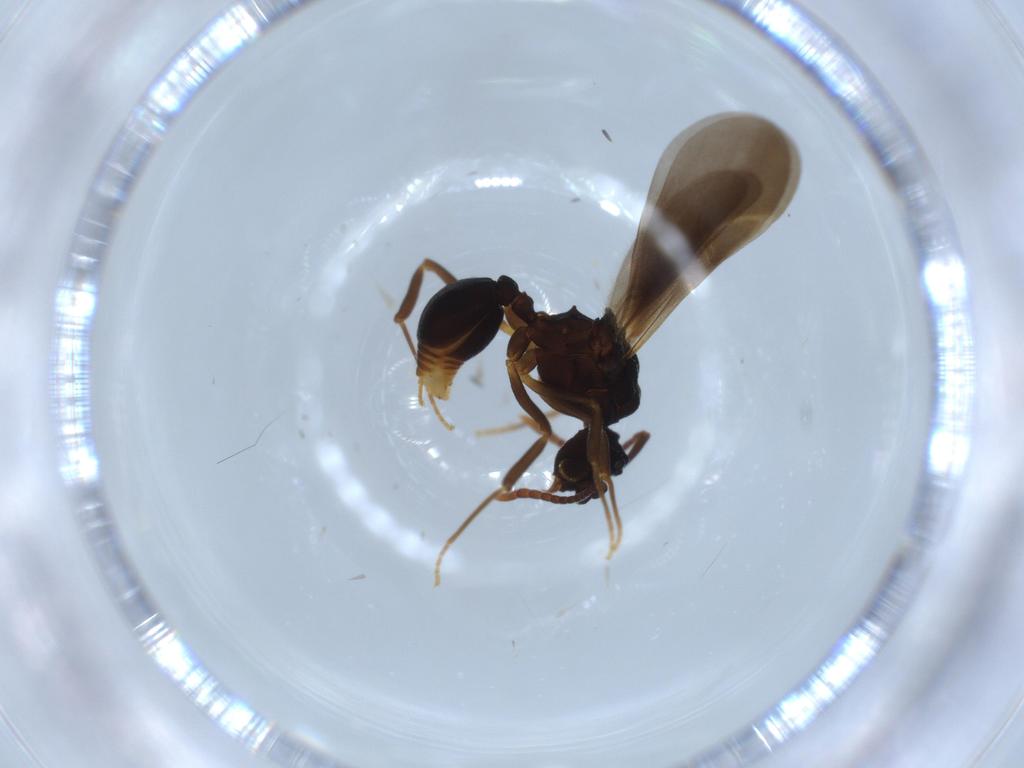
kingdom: Animalia
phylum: Arthropoda
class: Insecta
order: Hymenoptera
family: Formicidae
